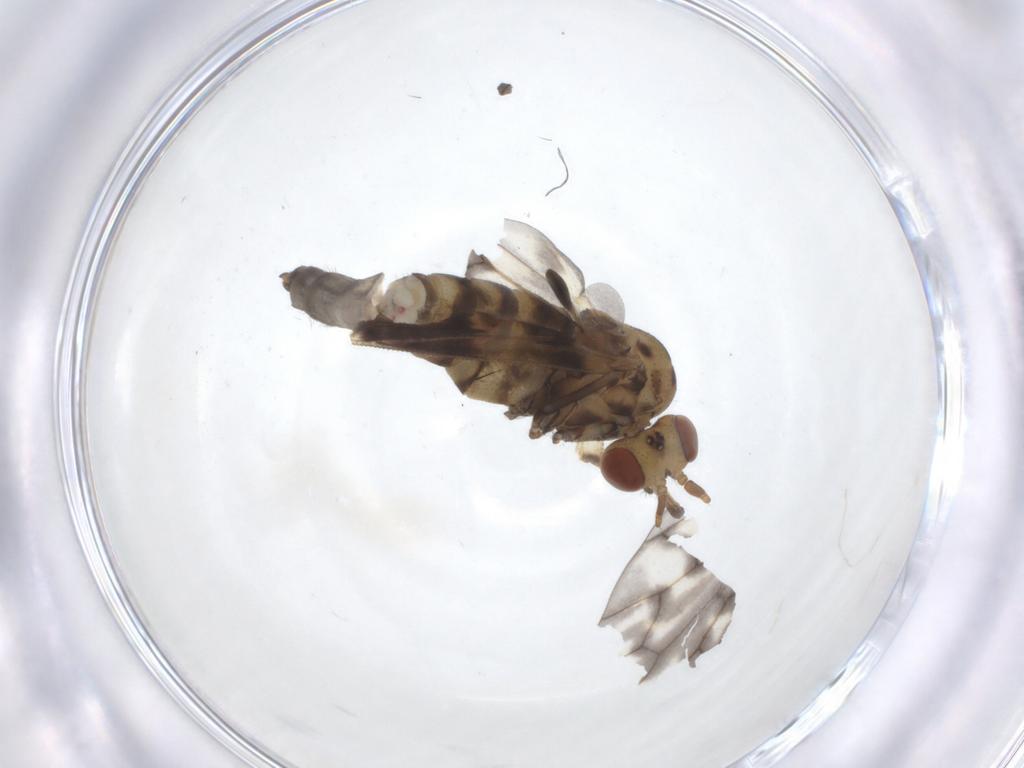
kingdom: Animalia
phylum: Arthropoda
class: Insecta
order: Diptera
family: Austroleptidae
